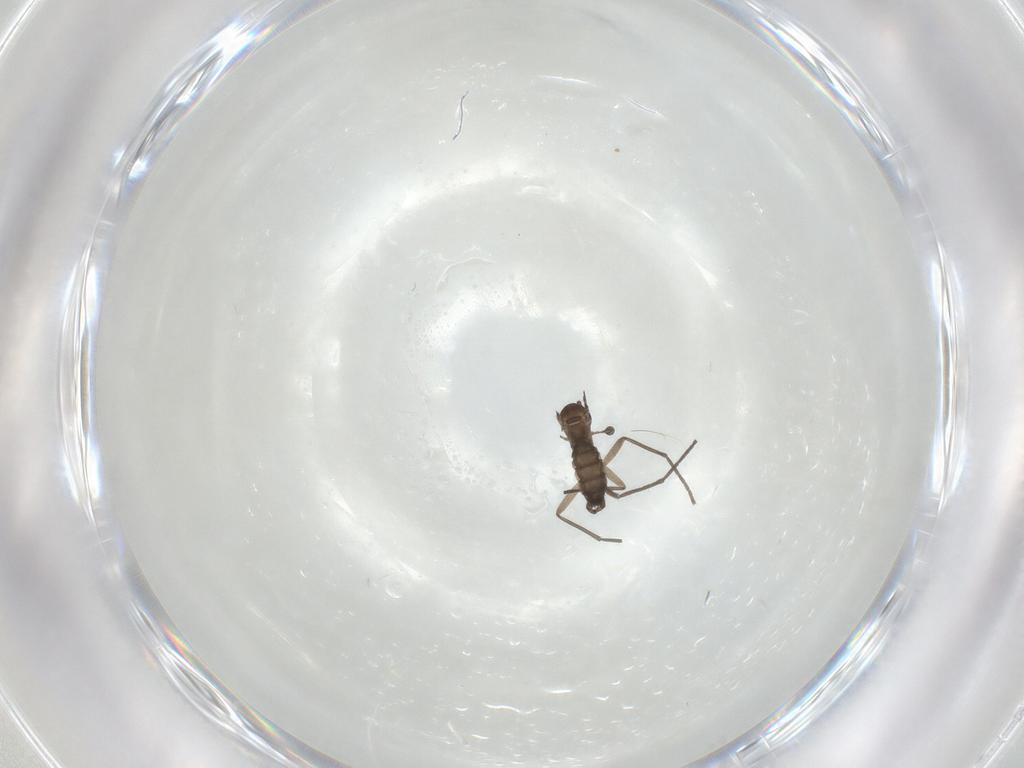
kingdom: Animalia
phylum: Arthropoda
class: Insecta
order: Diptera
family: Sciaridae
